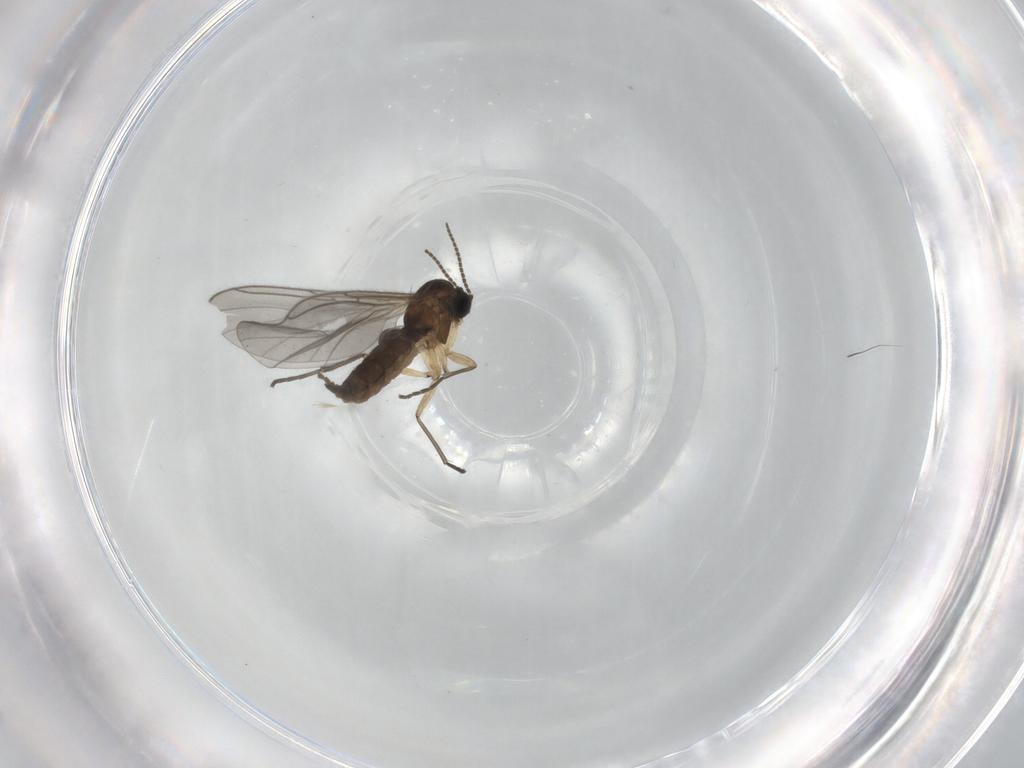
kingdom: Animalia
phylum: Arthropoda
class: Insecta
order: Diptera
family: Sciaridae
